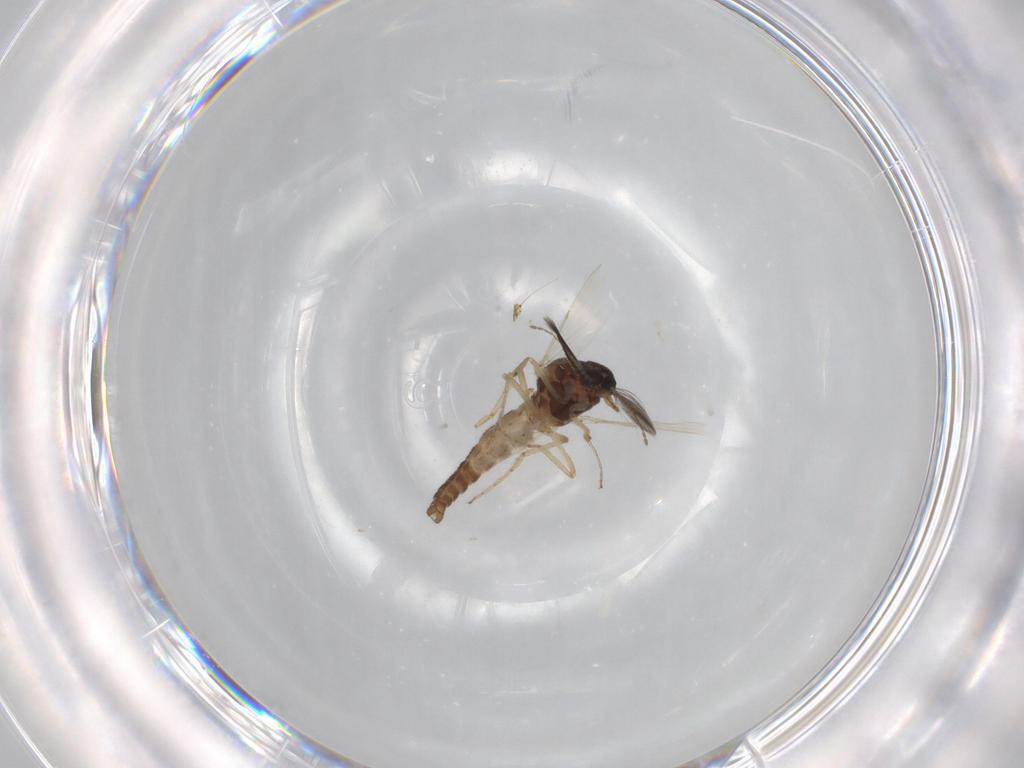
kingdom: Animalia
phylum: Arthropoda
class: Insecta
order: Diptera
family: Ceratopogonidae
